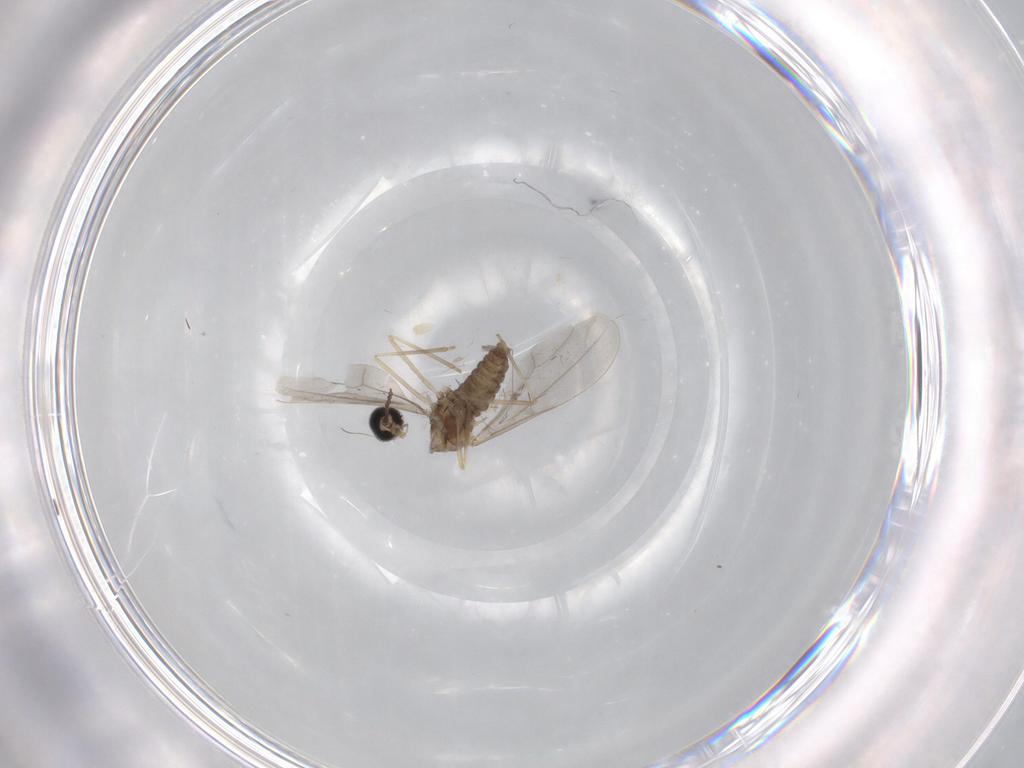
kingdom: Animalia
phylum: Arthropoda
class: Insecta
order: Diptera
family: Cecidomyiidae
